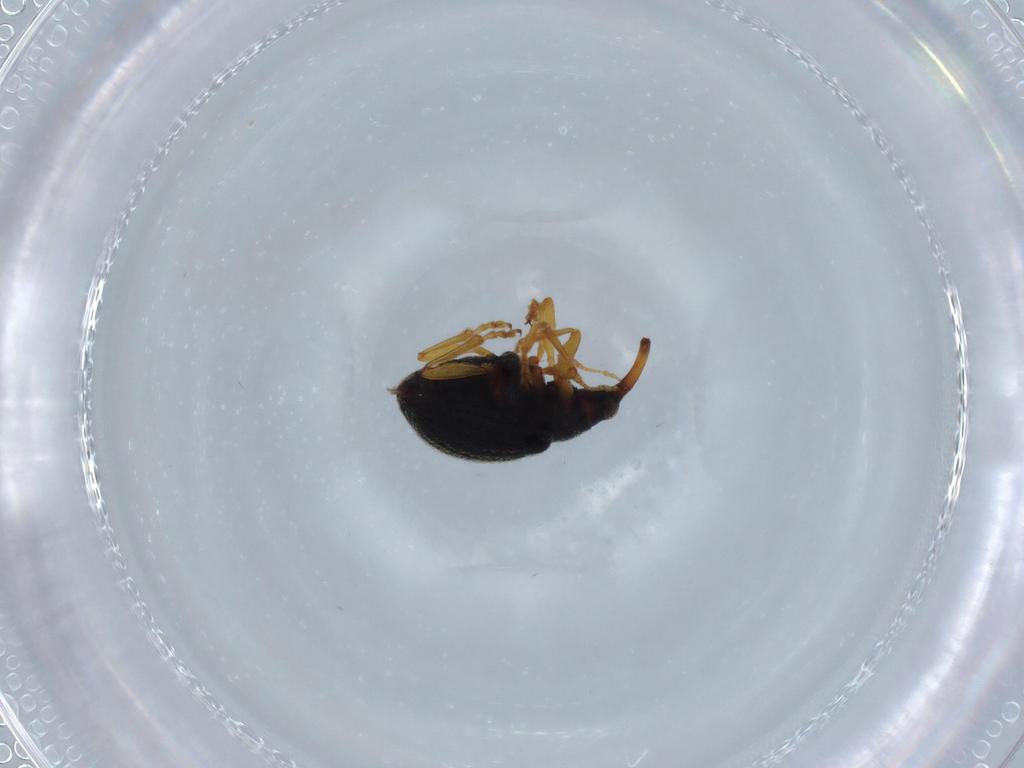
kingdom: Animalia
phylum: Arthropoda
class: Insecta
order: Coleoptera
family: Brentidae
